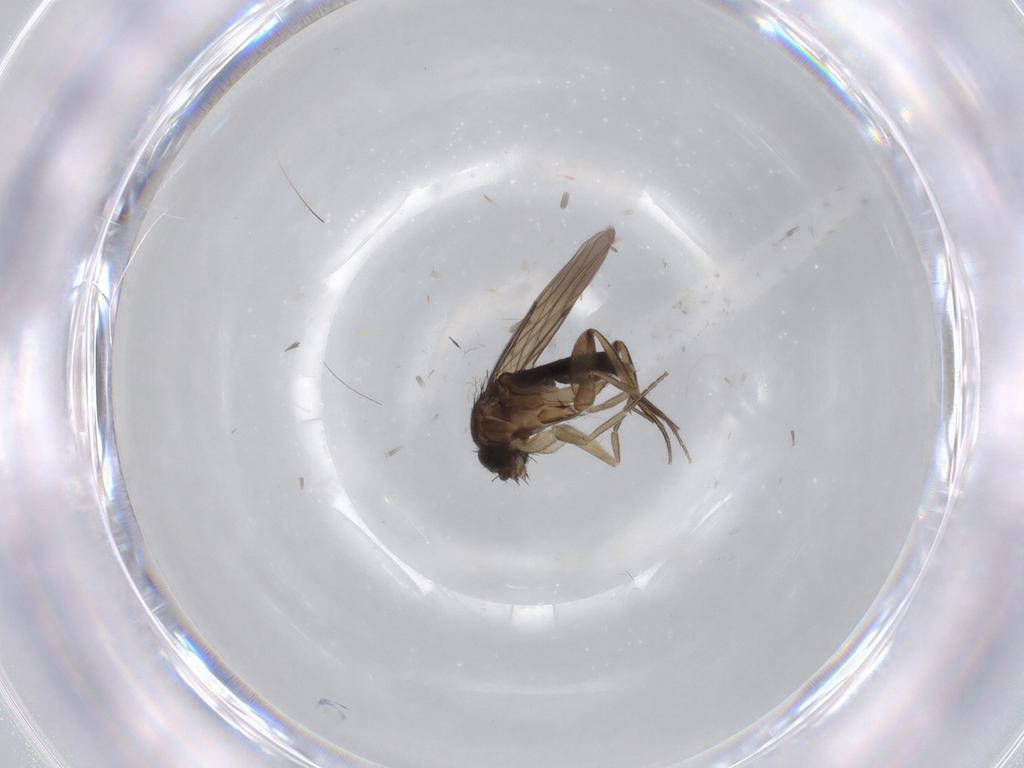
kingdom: Animalia
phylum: Arthropoda
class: Insecta
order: Diptera
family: Phoridae
